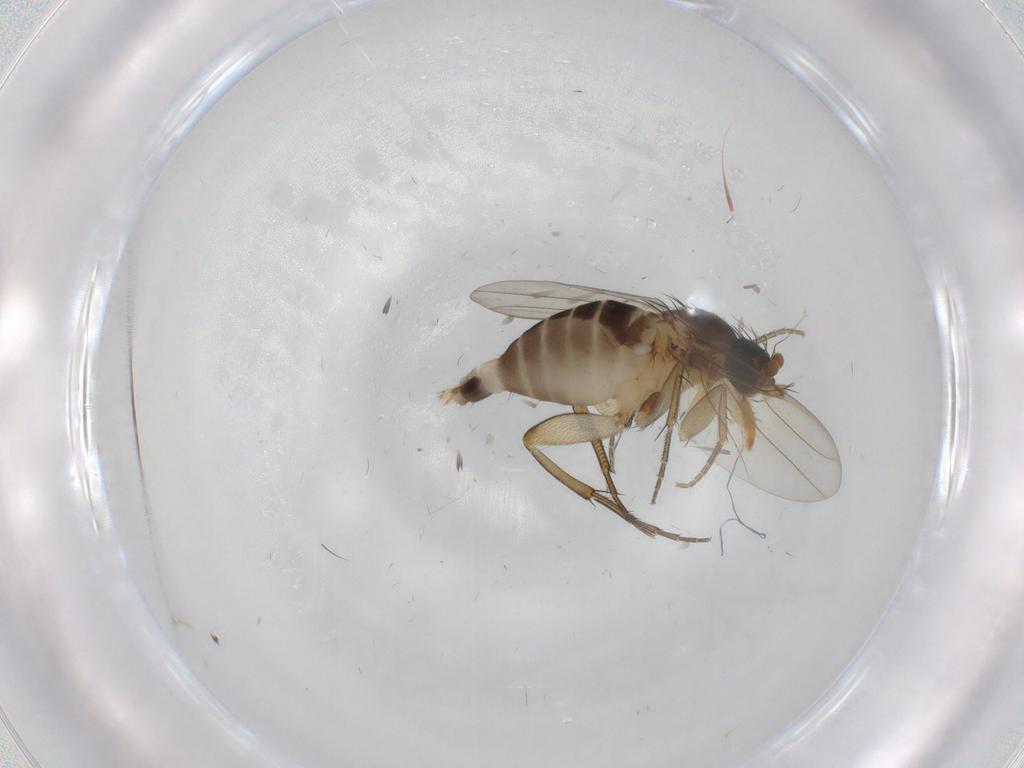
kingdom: Animalia
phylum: Arthropoda
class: Insecta
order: Diptera
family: Phoridae
